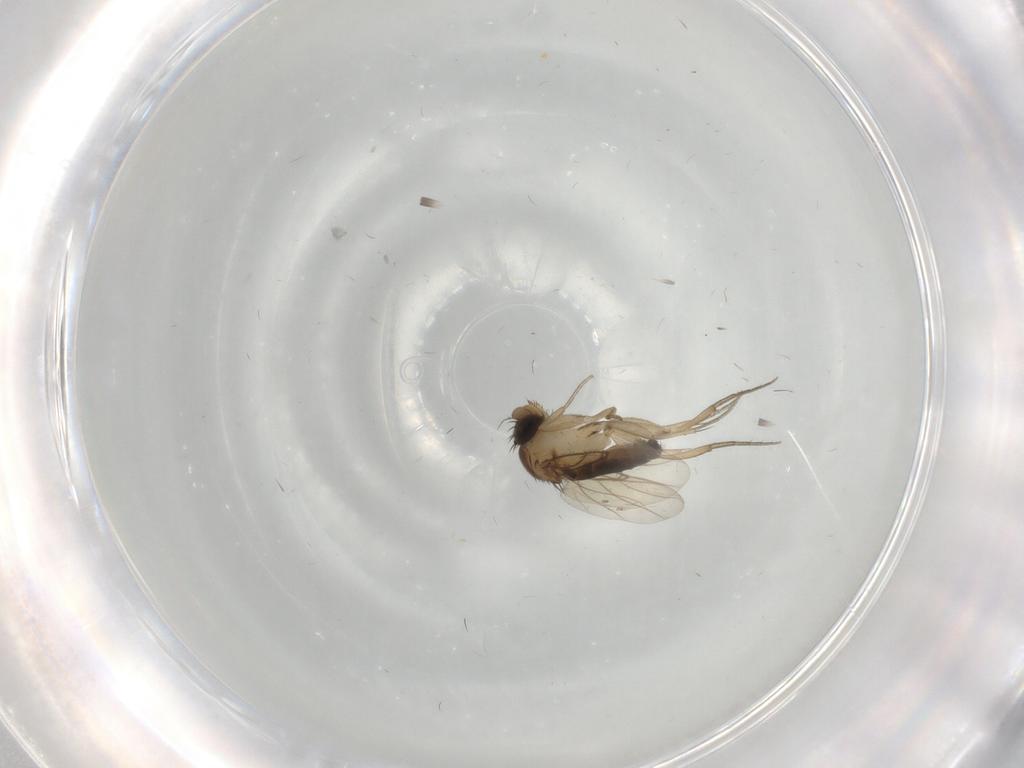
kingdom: Animalia
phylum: Arthropoda
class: Insecta
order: Diptera
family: Phoridae
